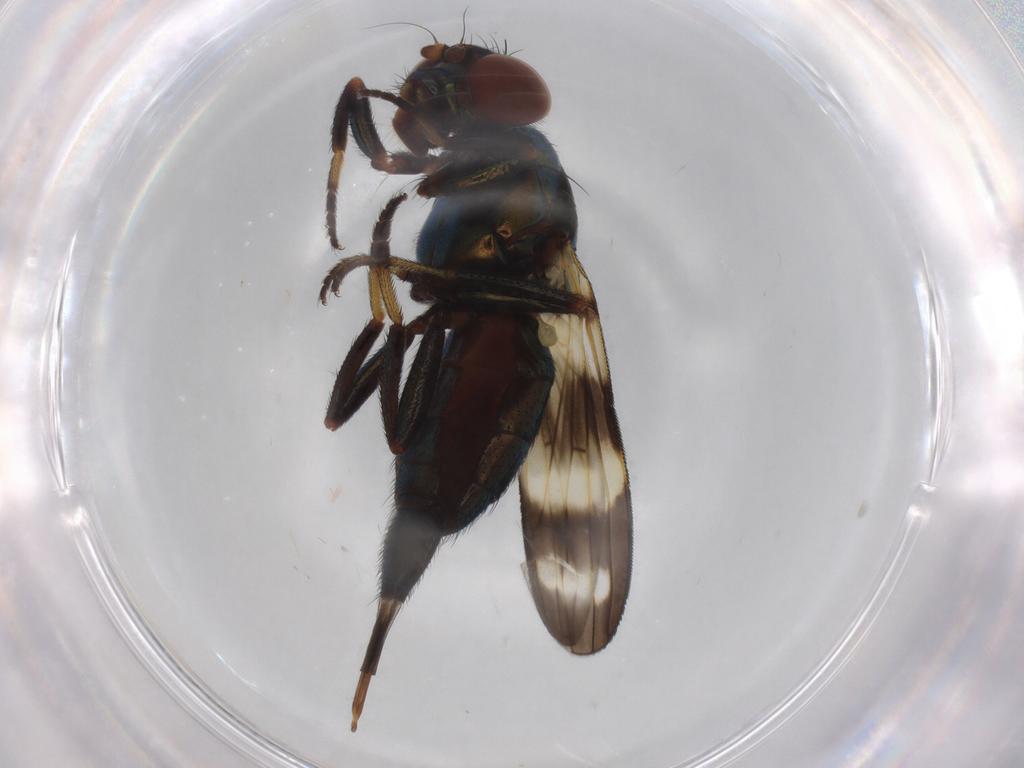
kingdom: Animalia
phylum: Arthropoda
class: Insecta
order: Diptera
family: Ulidiidae
